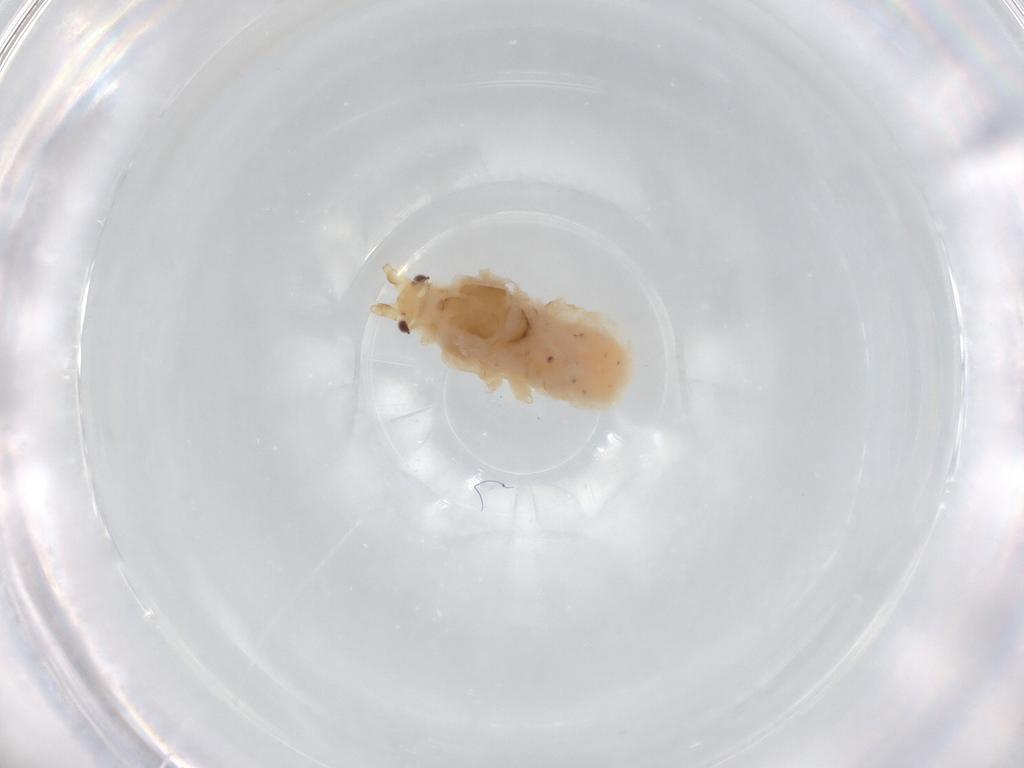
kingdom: Animalia
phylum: Arthropoda
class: Insecta
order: Hemiptera
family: Aphididae
